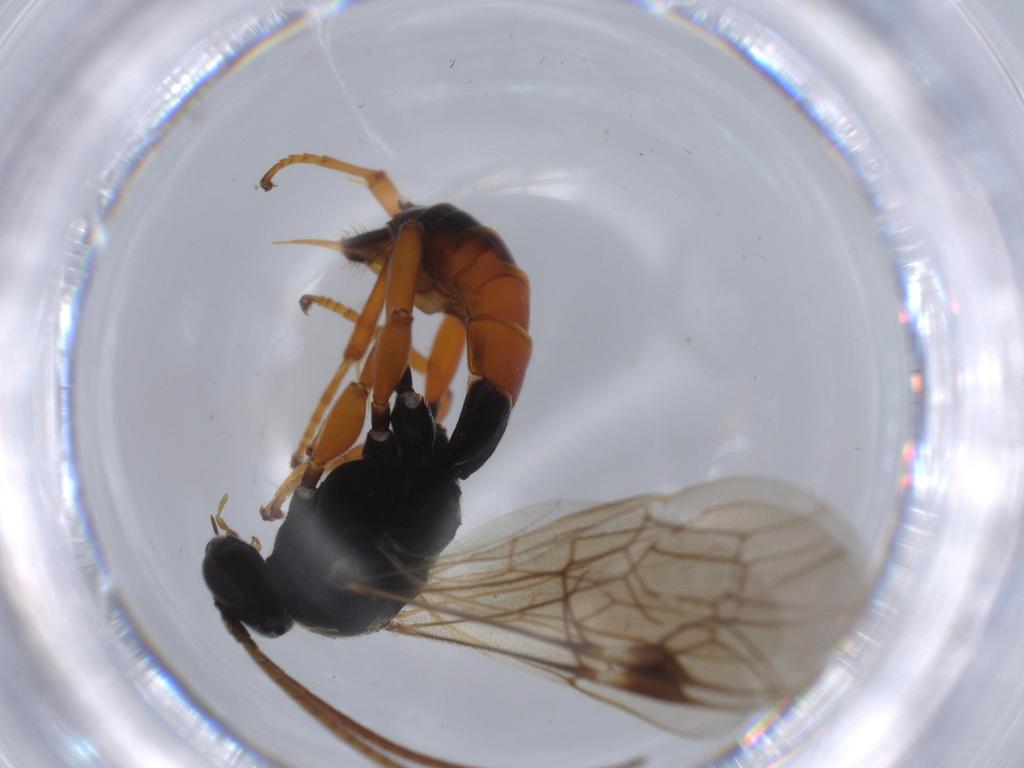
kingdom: Animalia
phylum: Arthropoda
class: Insecta
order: Hymenoptera
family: Ichneumonidae
